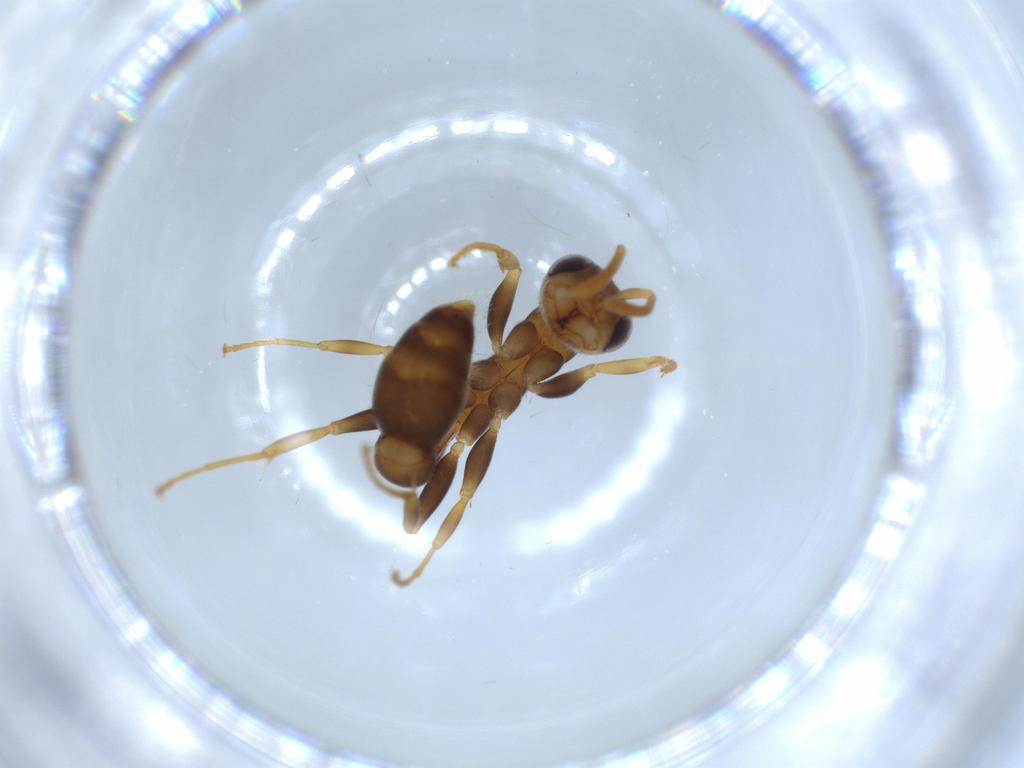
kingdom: Animalia
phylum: Arthropoda
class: Insecta
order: Hymenoptera
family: Formicidae
